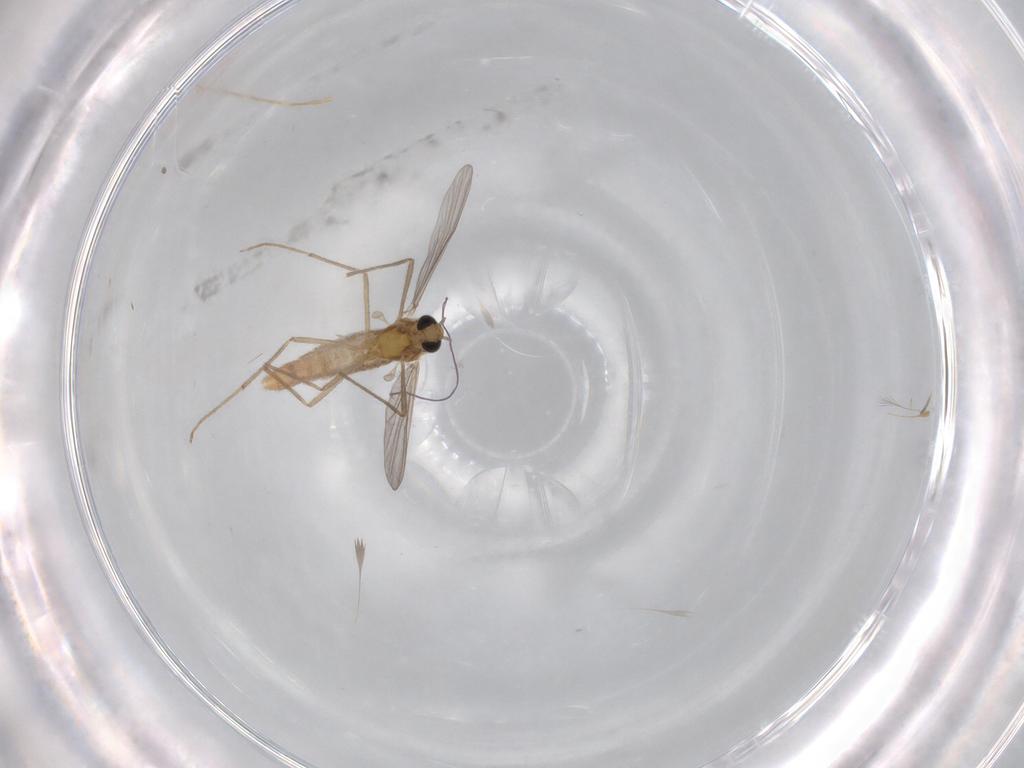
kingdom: Animalia
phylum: Arthropoda
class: Insecta
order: Diptera
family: Chironomidae
